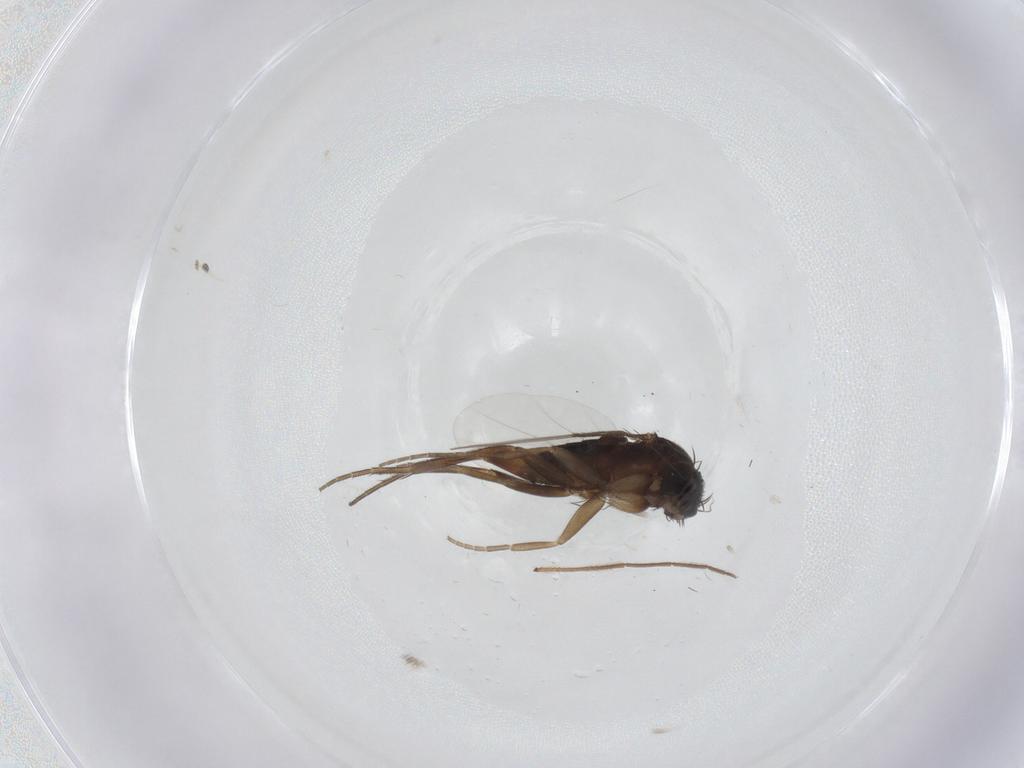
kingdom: Animalia
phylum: Arthropoda
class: Insecta
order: Diptera
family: Phoridae
